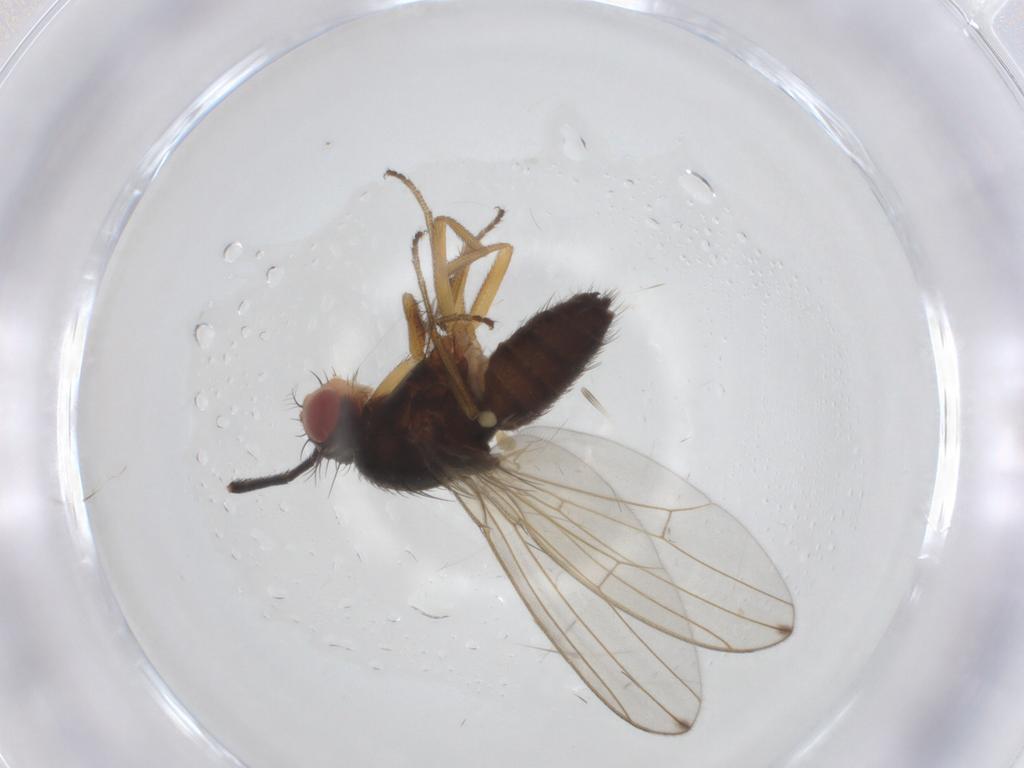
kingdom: Animalia
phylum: Arthropoda
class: Insecta
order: Diptera
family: Drosophilidae
